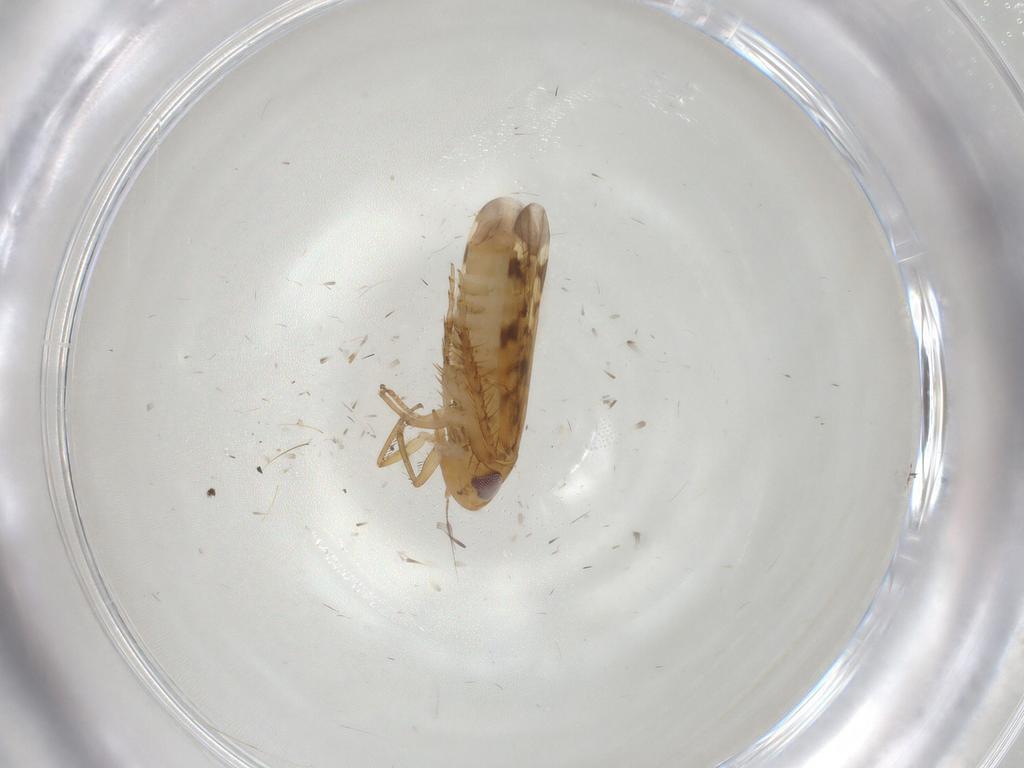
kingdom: Animalia
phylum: Arthropoda
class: Insecta
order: Hemiptera
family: Cicadellidae
